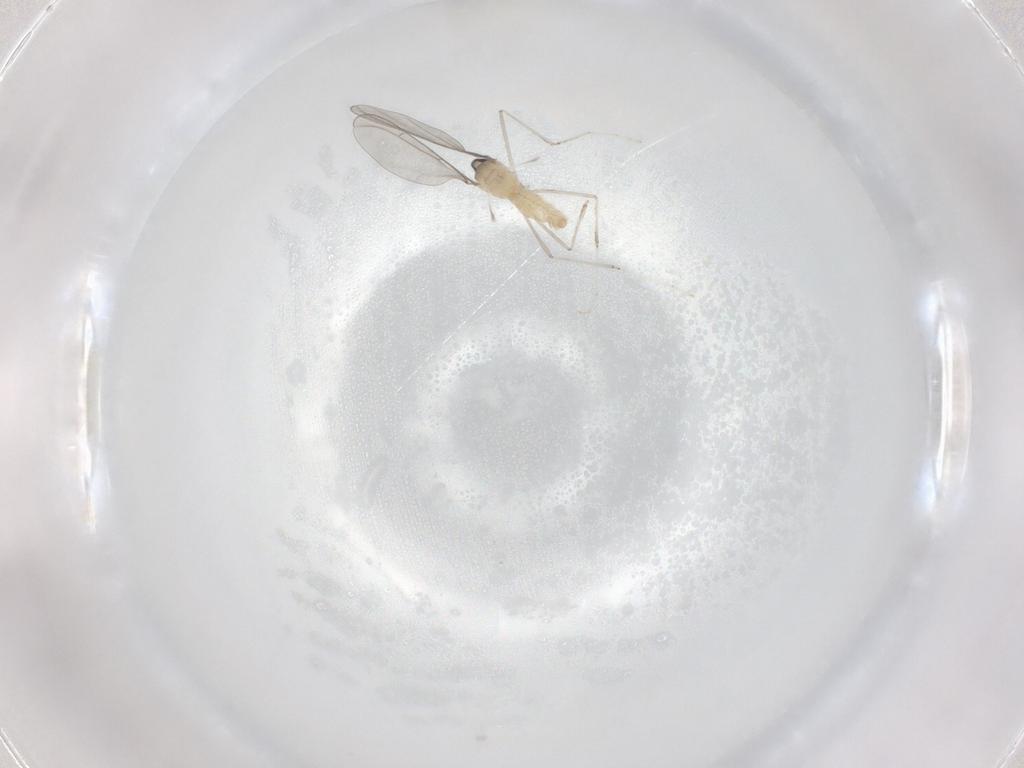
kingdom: Animalia
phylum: Arthropoda
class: Insecta
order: Diptera
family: Cecidomyiidae
